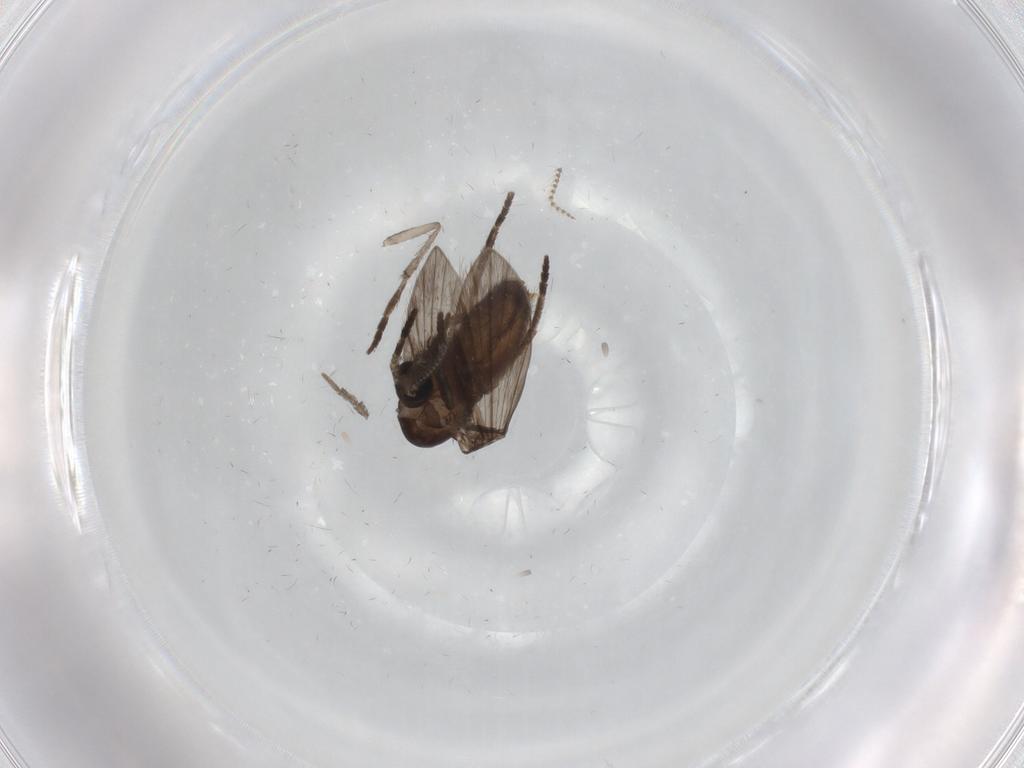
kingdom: Animalia
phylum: Arthropoda
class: Insecta
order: Diptera
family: Psychodidae
